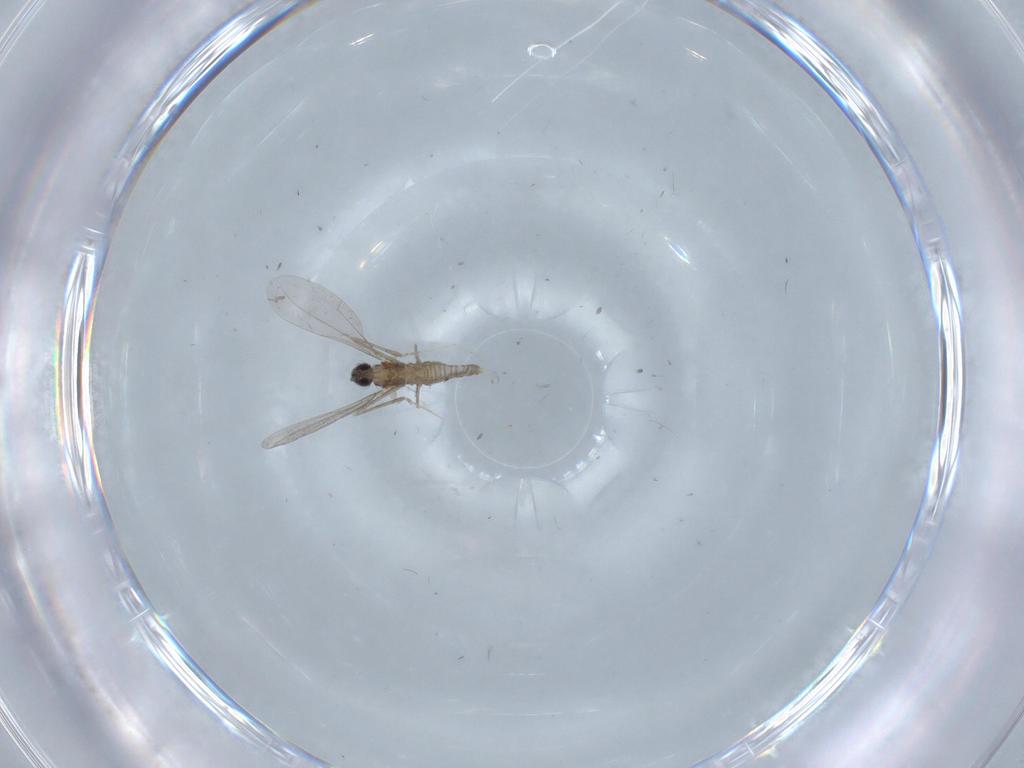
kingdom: Animalia
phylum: Arthropoda
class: Insecta
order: Diptera
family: Cecidomyiidae
